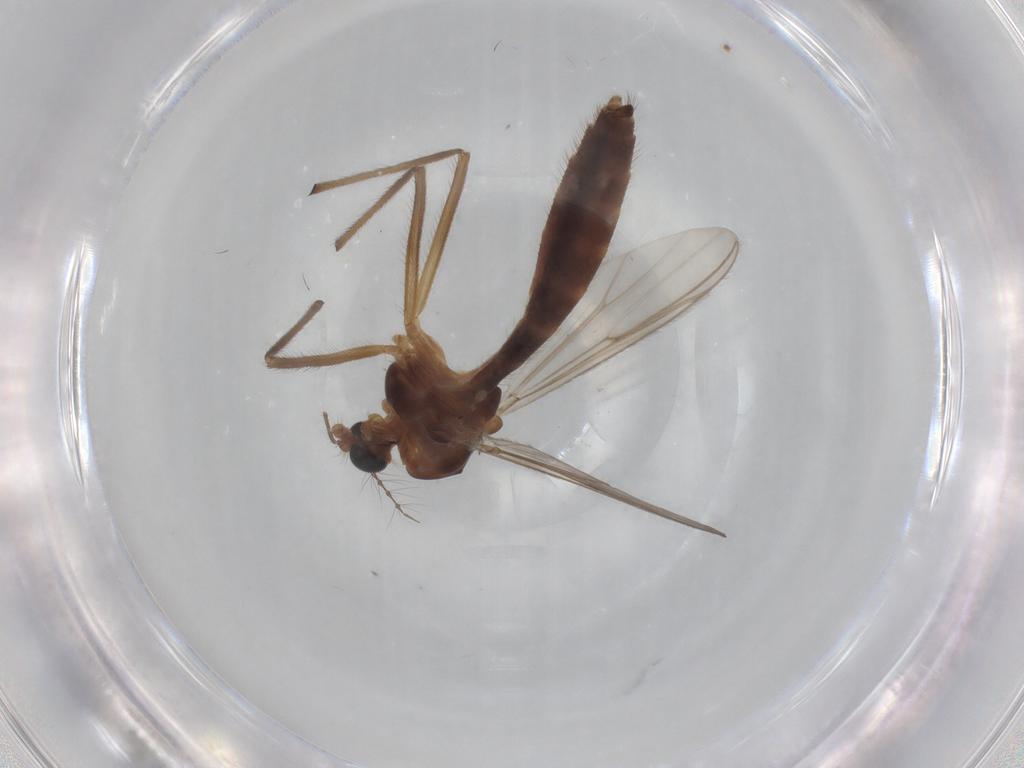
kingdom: Animalia
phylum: Arthropoda
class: Insecta
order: Diptera
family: Chironomidae
